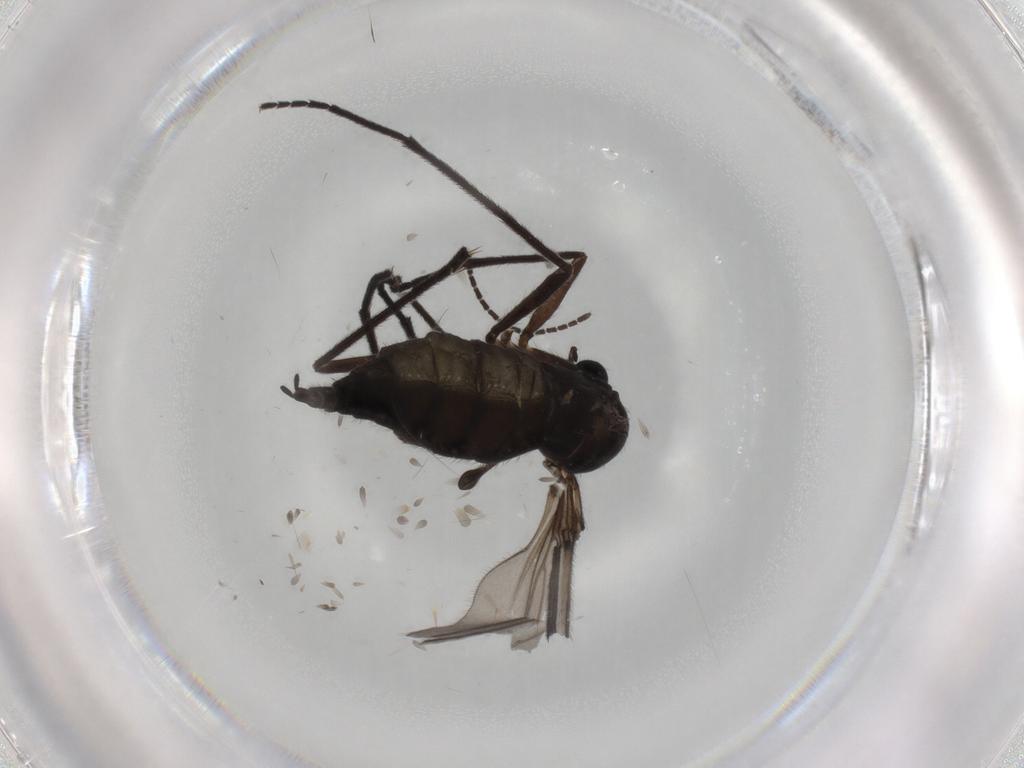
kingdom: Animalia
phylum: Arthropoda
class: Insecta
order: Diptera
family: Sciaridae
